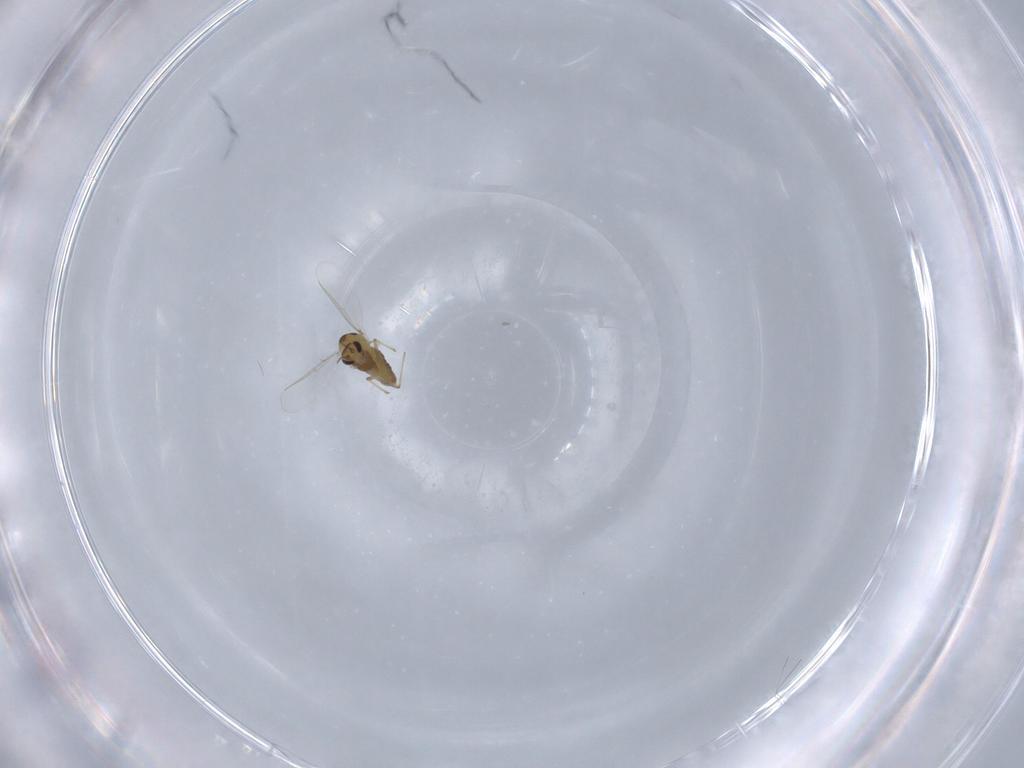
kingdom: Animalia
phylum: Arthropoda
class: Insecta
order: Diptera
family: Chironomidae
